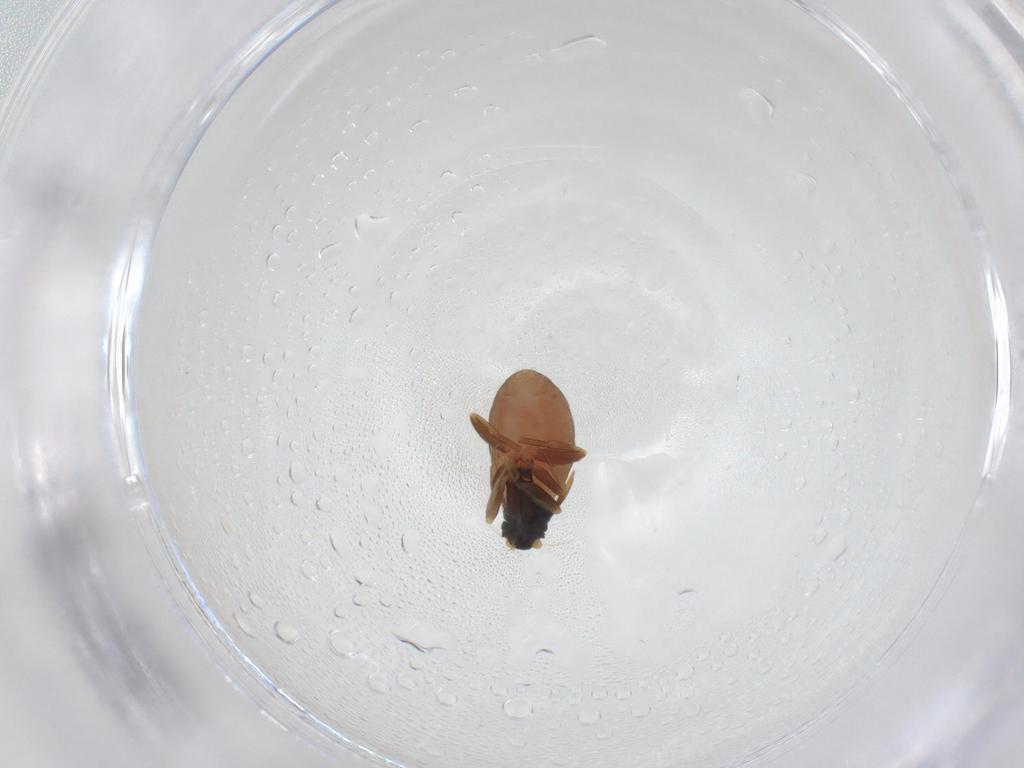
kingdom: Animalia
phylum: Arthropoda
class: Insecta
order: Diptera
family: Phoridae
